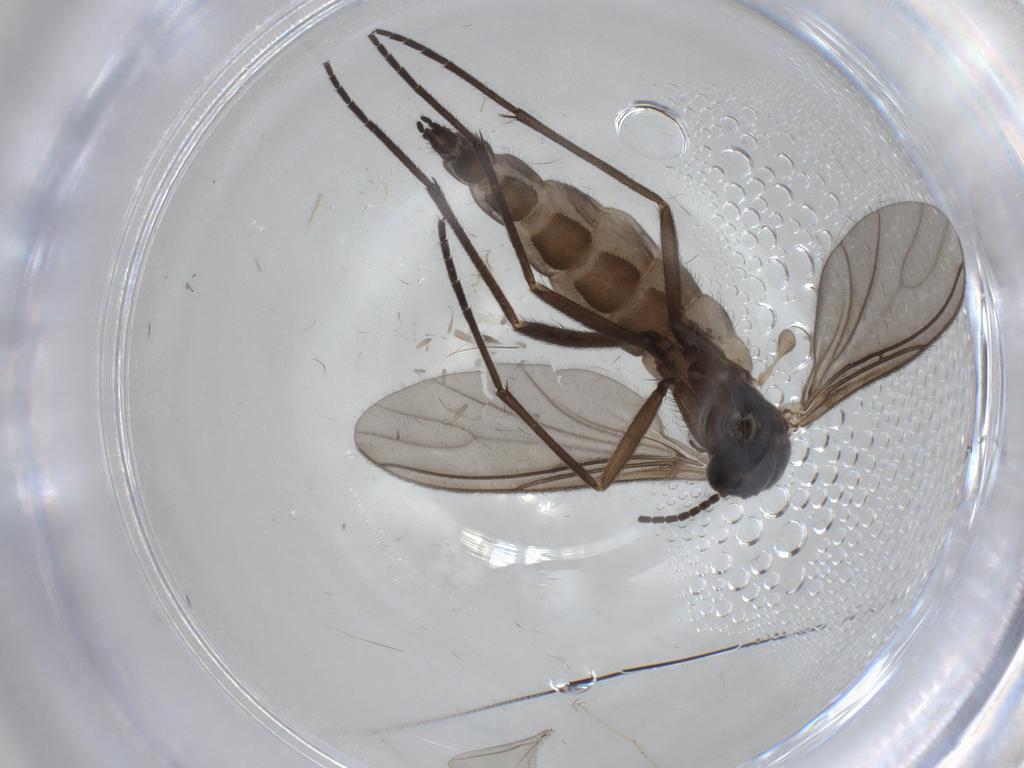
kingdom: Animalia
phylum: Arthropoda
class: Insecta
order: Diptera
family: Sciaridae
